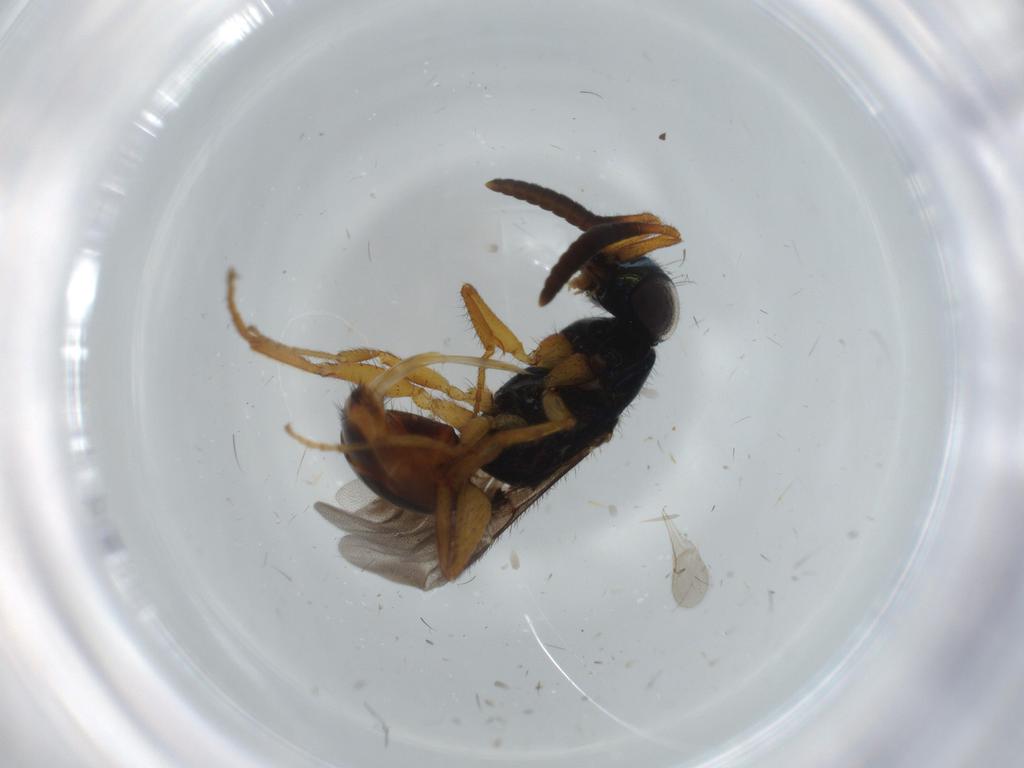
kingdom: Animalia
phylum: Arthropoda
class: Insecta
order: Hymenoptera
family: Chrysididae
